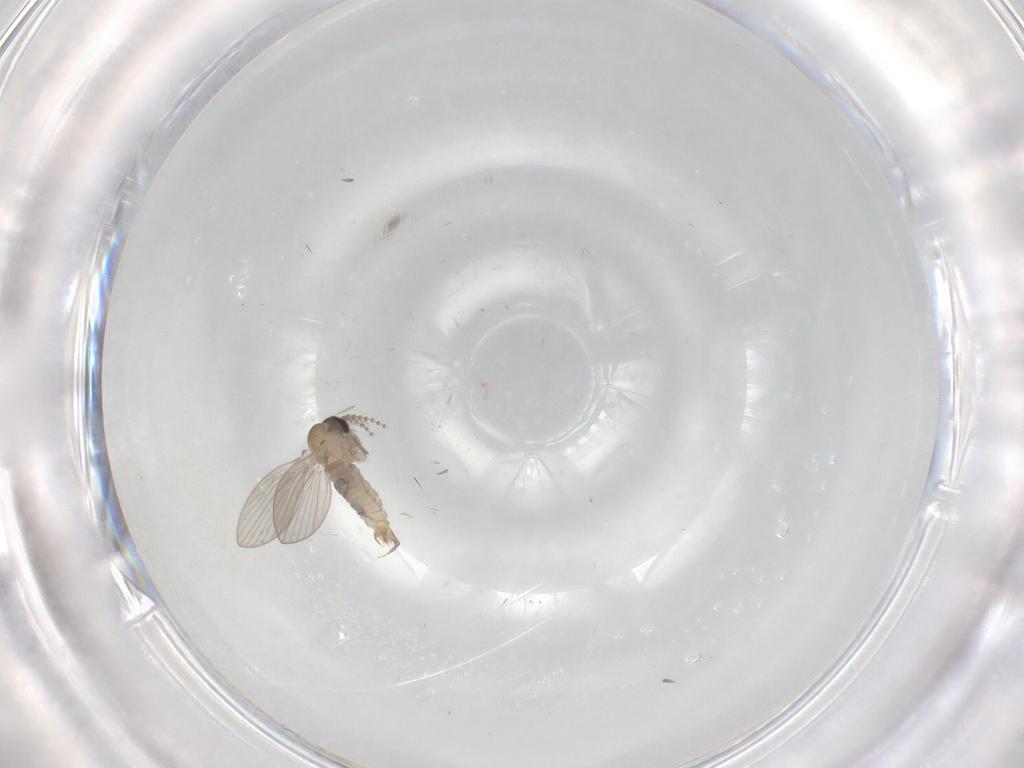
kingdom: Animalia
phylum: Arthropoda
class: Insecta
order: Diptera
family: Psychodidae
